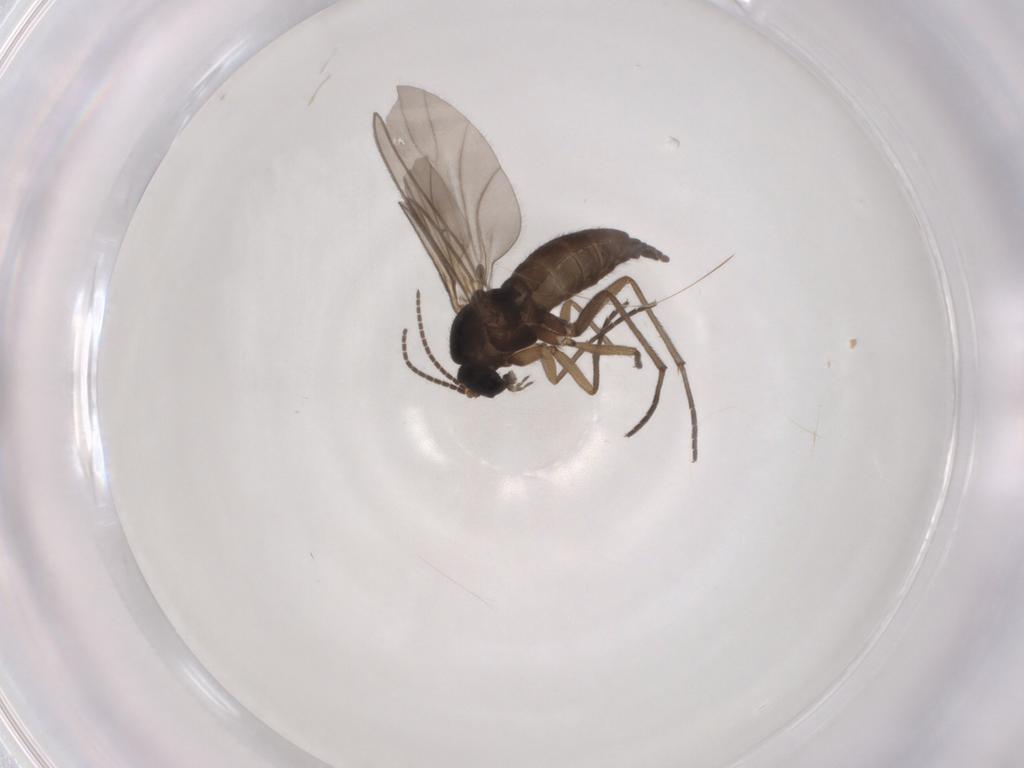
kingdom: Animalia
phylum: Arthropoda
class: Insecta
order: Diptera
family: Sciaridae
